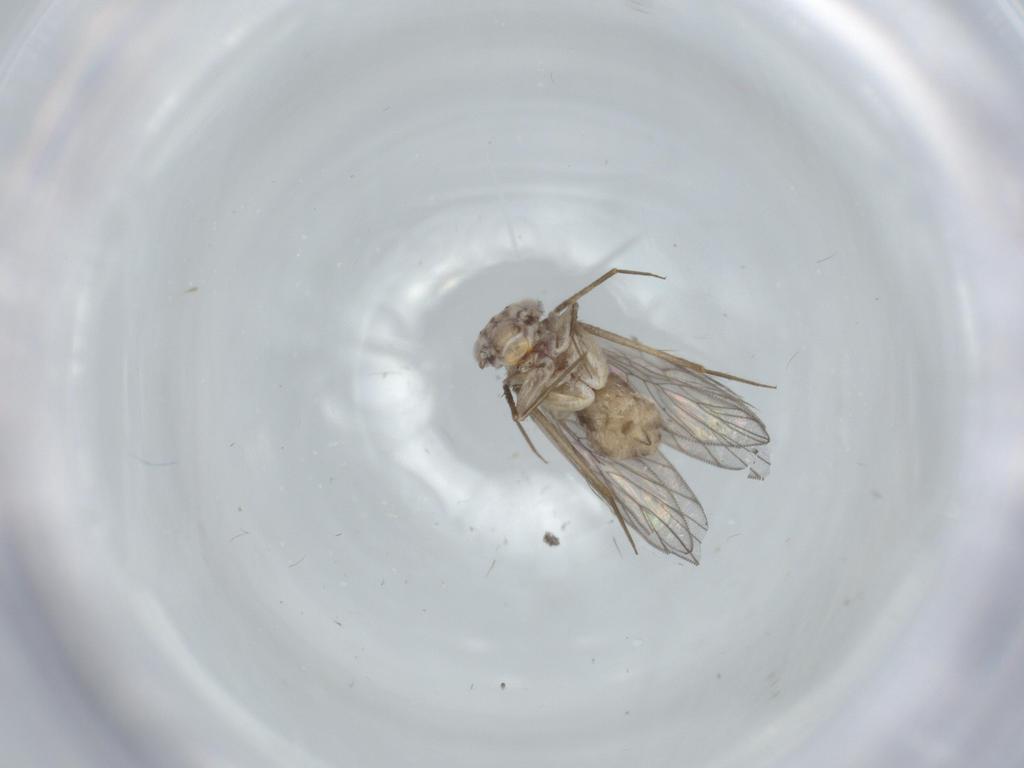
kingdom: Animalia
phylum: Arthropoda
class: Insecta
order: Psocodea
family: Lepidopsocidae
